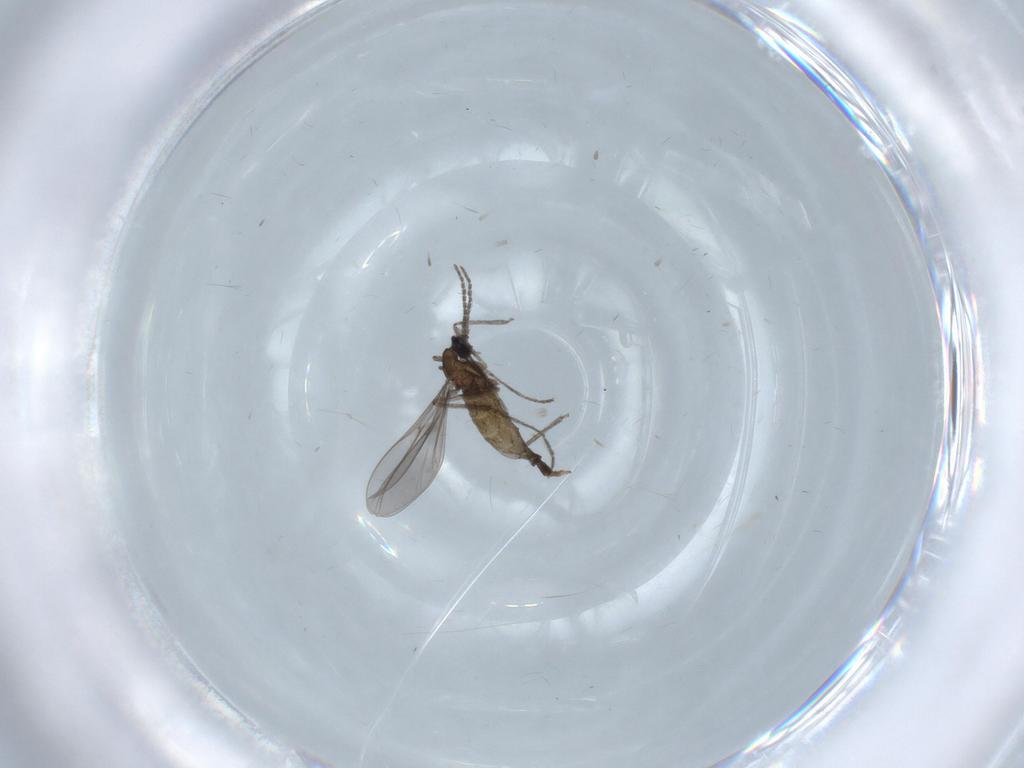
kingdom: Animalia
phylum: Arthropoda
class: Insecta
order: Diptera
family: Cecidomyiidae
